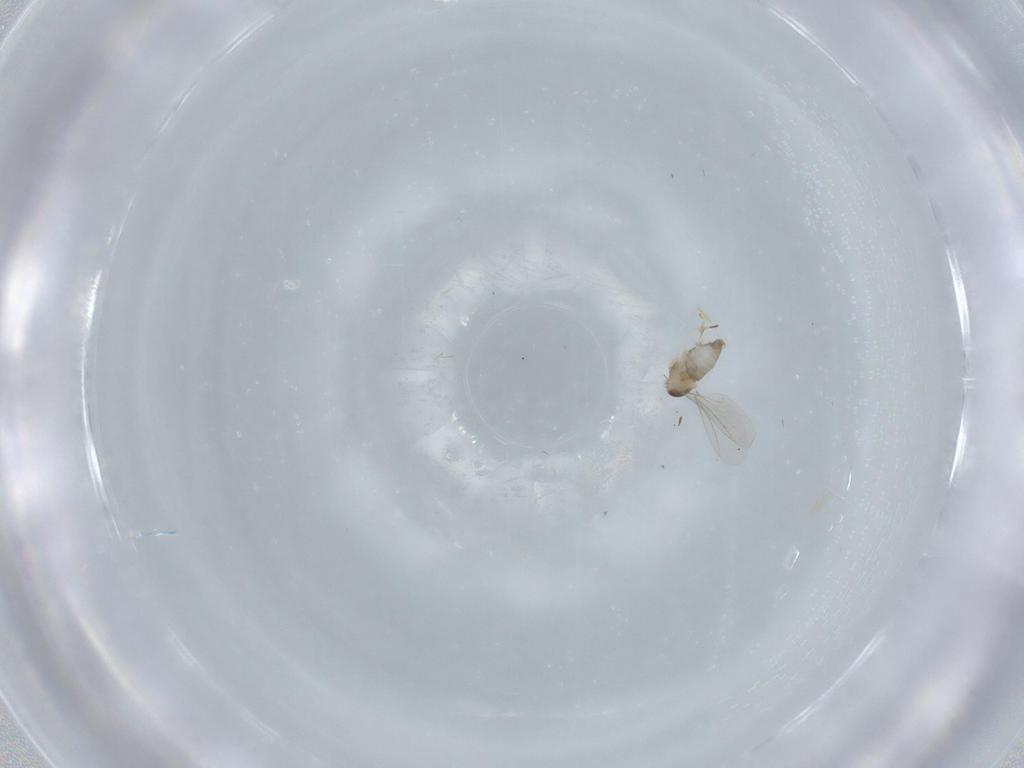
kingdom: Animalia
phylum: Arthropoda
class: Insecta
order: Diptera
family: Cecidomyiidae
